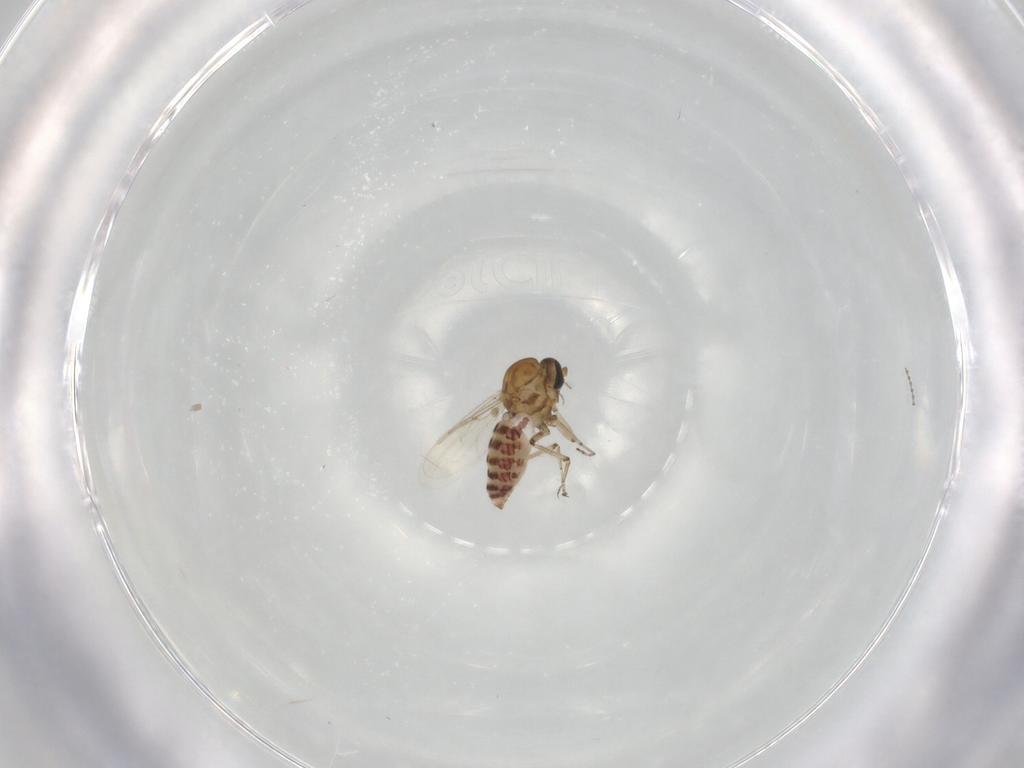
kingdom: Animalia
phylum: Arthropoda
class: Insecta
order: Diptera
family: Ceratopogonidae
